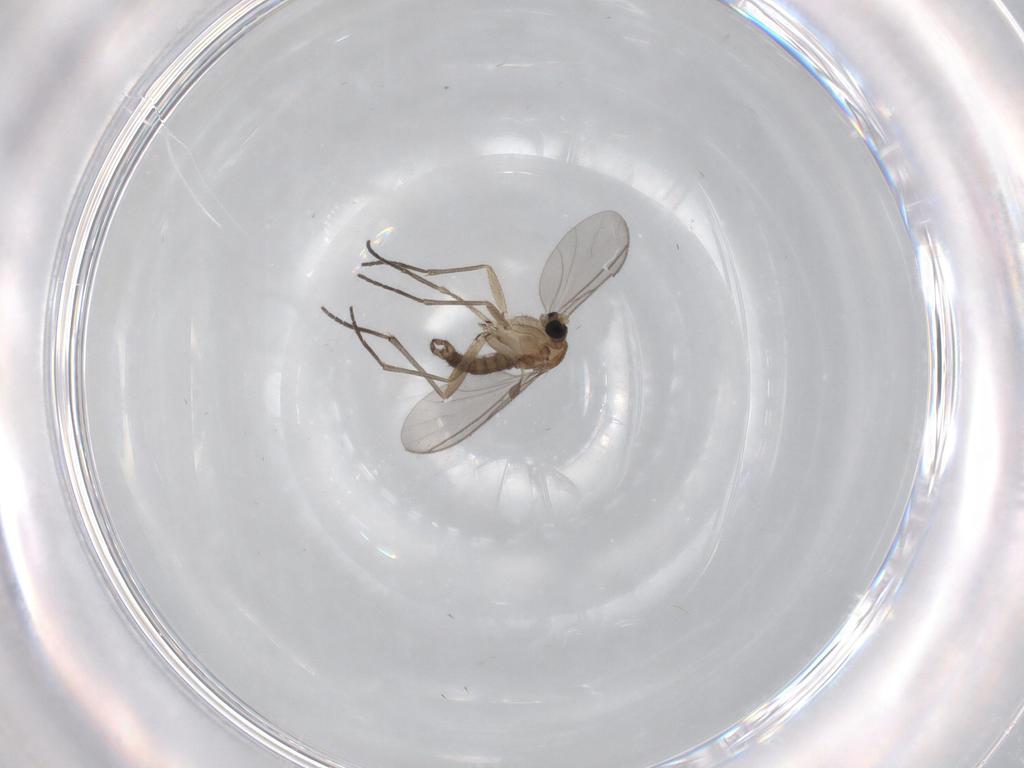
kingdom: Animalia
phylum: Arthropoda
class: Insecta
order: Diptera
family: Sciaridae
